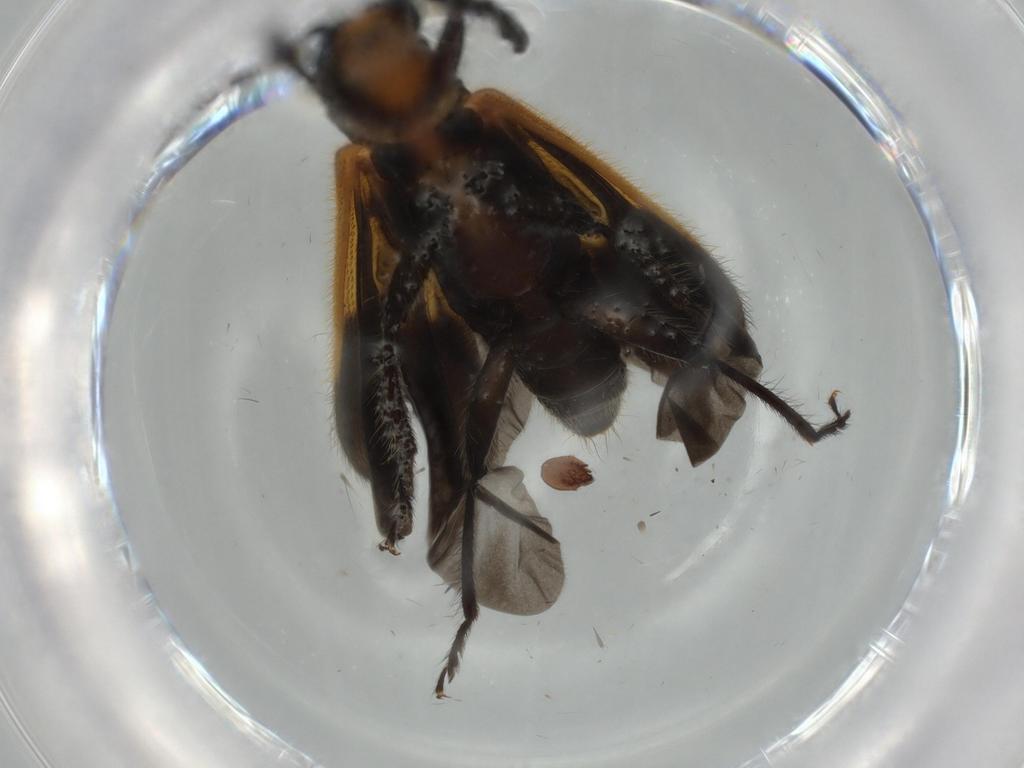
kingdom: Animalia
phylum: Arthropoda
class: Insecta
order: Coleoptera
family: Cleridae
